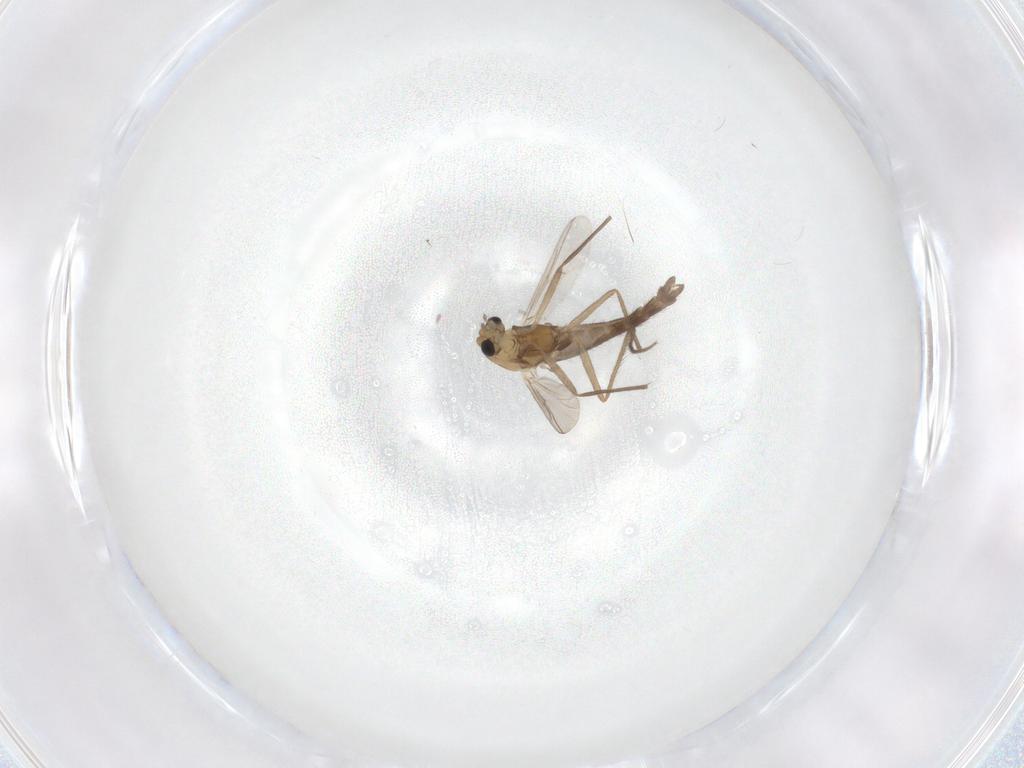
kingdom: Animalia
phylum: Arthropoda
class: Insecta
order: Diptera
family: Chironomidae
